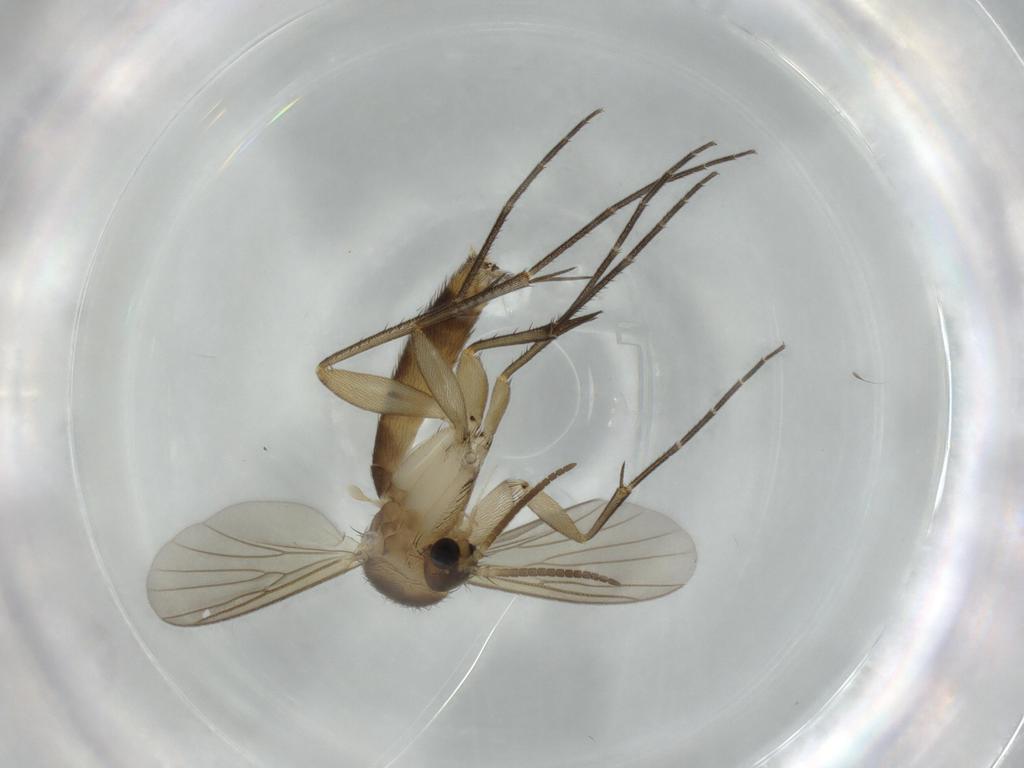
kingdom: Animalia
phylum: Arthropoda
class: Insecta
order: Diptera
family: Mycetophilidae
